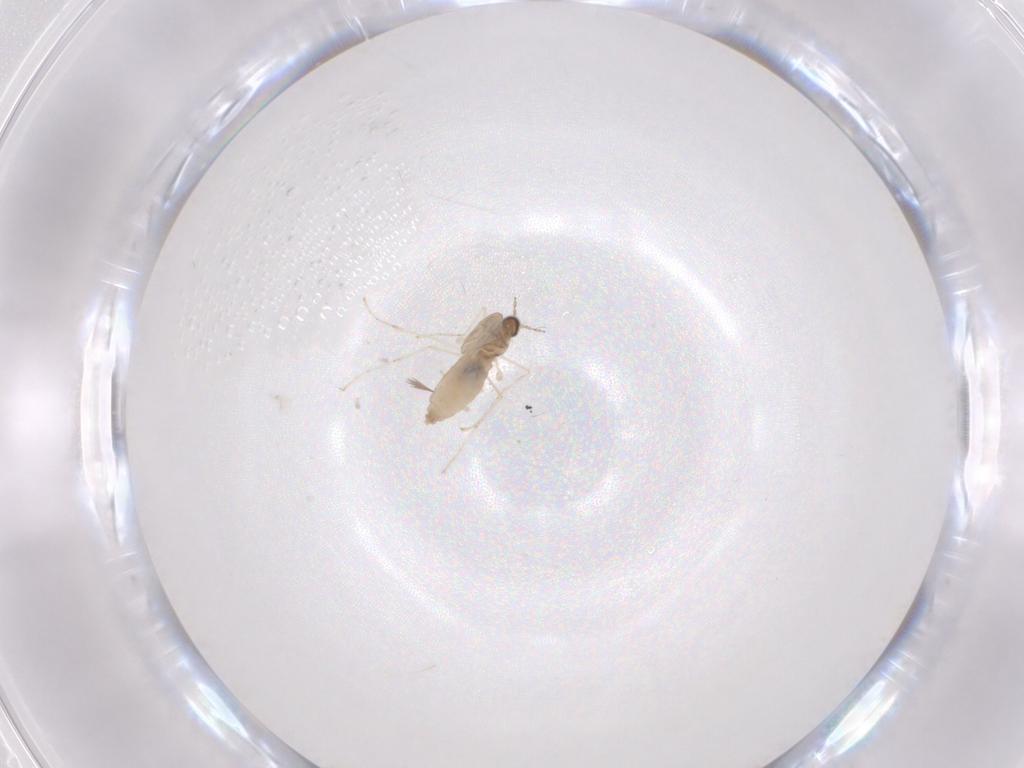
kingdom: Animalia
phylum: Arthropoda
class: Insecta
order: Diptera
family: Cecidomyiidae
